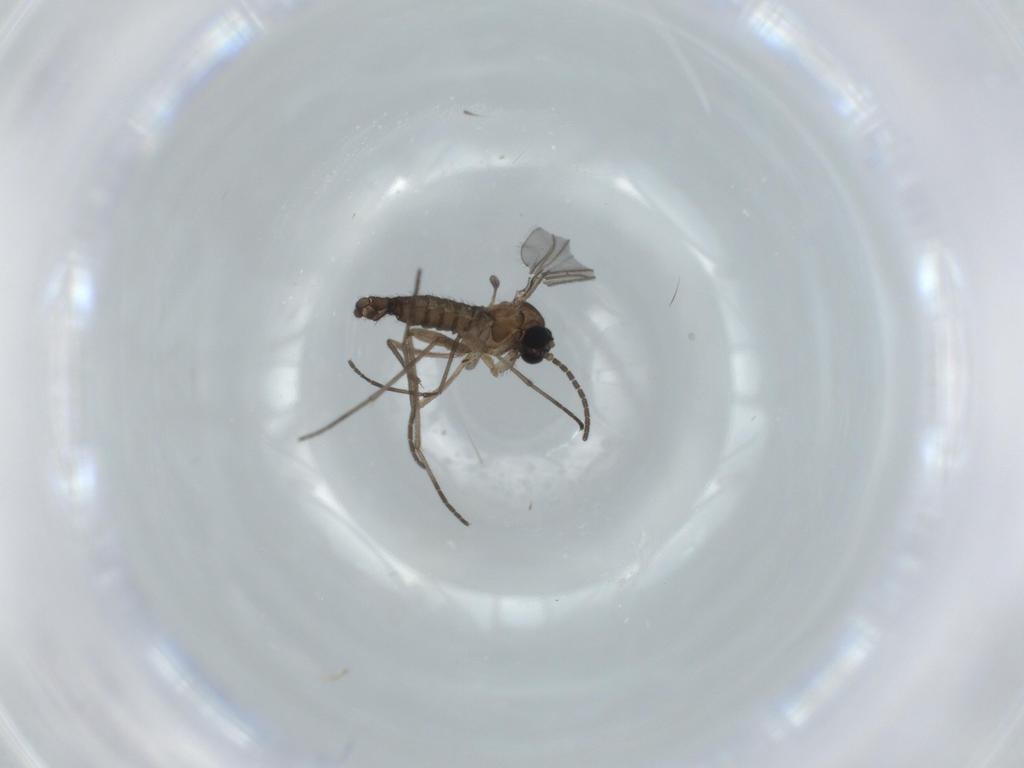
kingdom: Animalia
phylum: Arthropoda
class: Insecta
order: Diptera
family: Sciaridae
